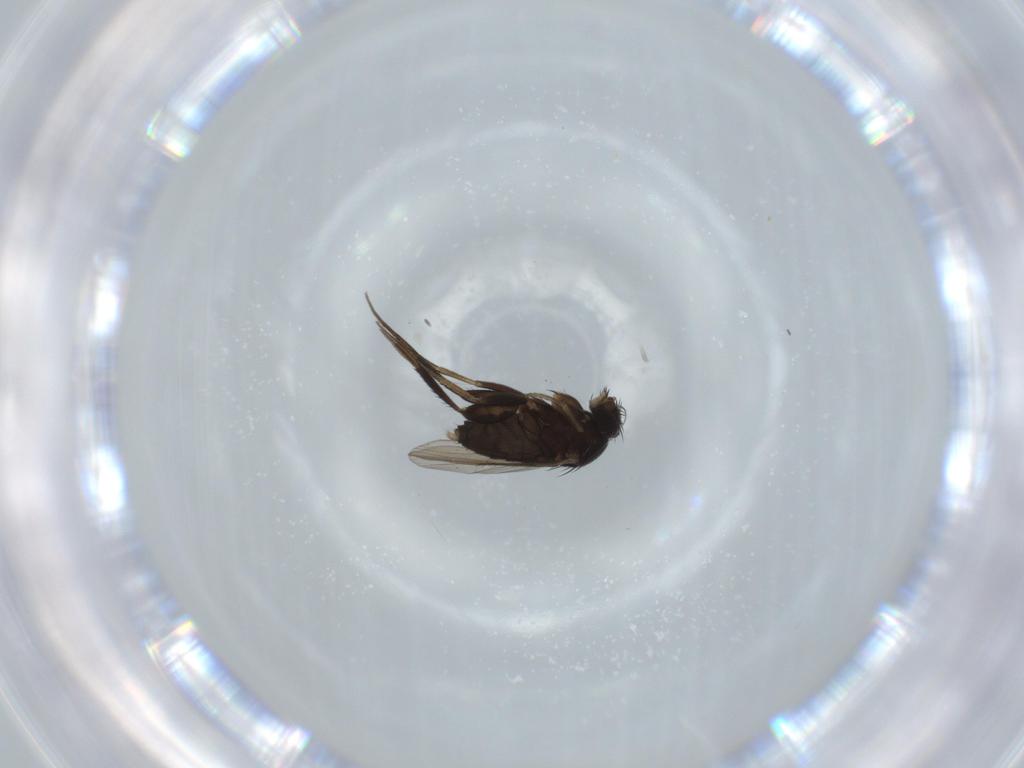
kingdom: Animalia
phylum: Arthropoda
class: Insecta
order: Diptera
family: Phoridae
